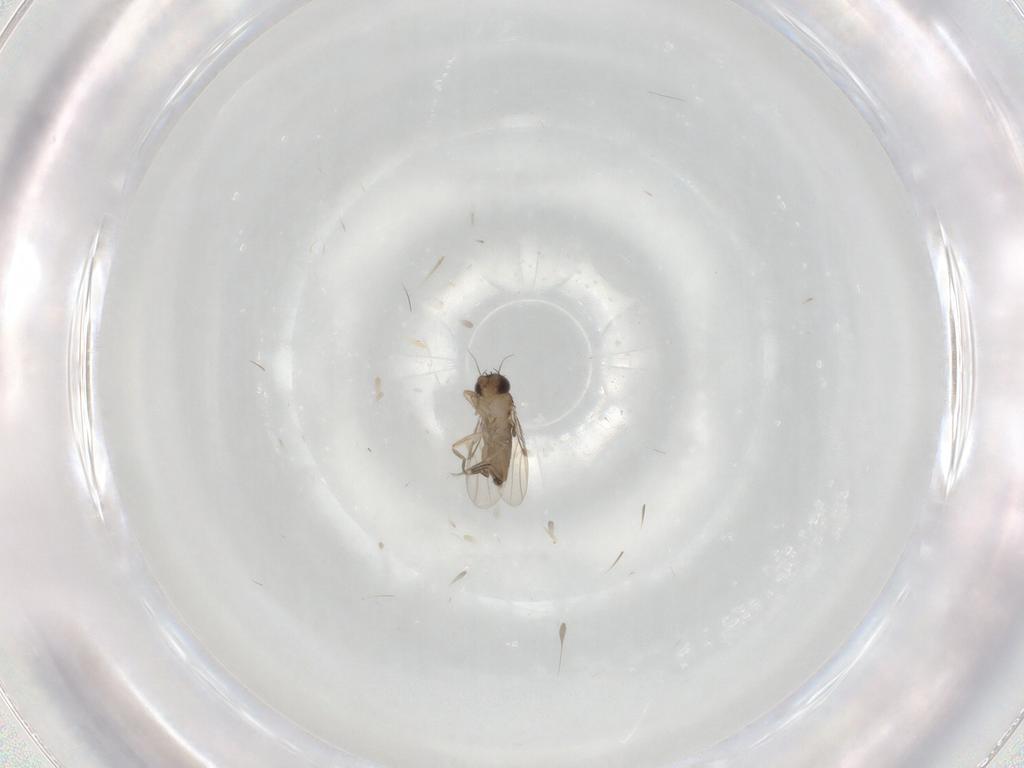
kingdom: Animalia
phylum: Arthropoda
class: Insecta
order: Diptera
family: Phoridae
